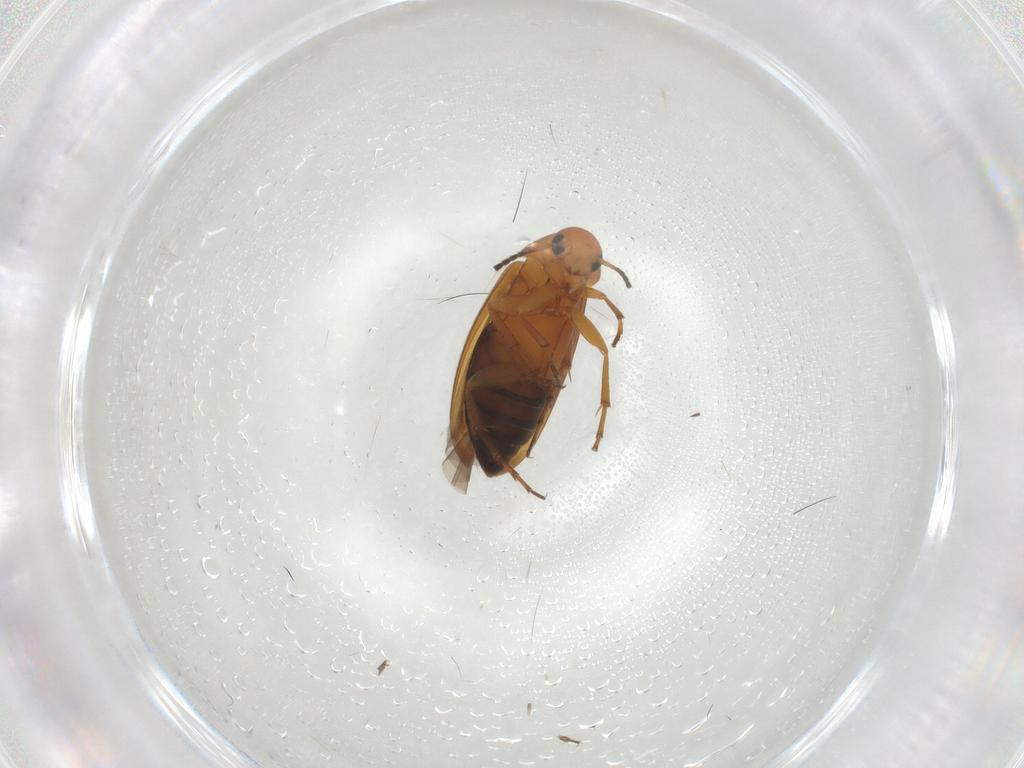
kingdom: Animalia
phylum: Arthropoda
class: Insecta
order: Coleoptera
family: Scraptiidae
